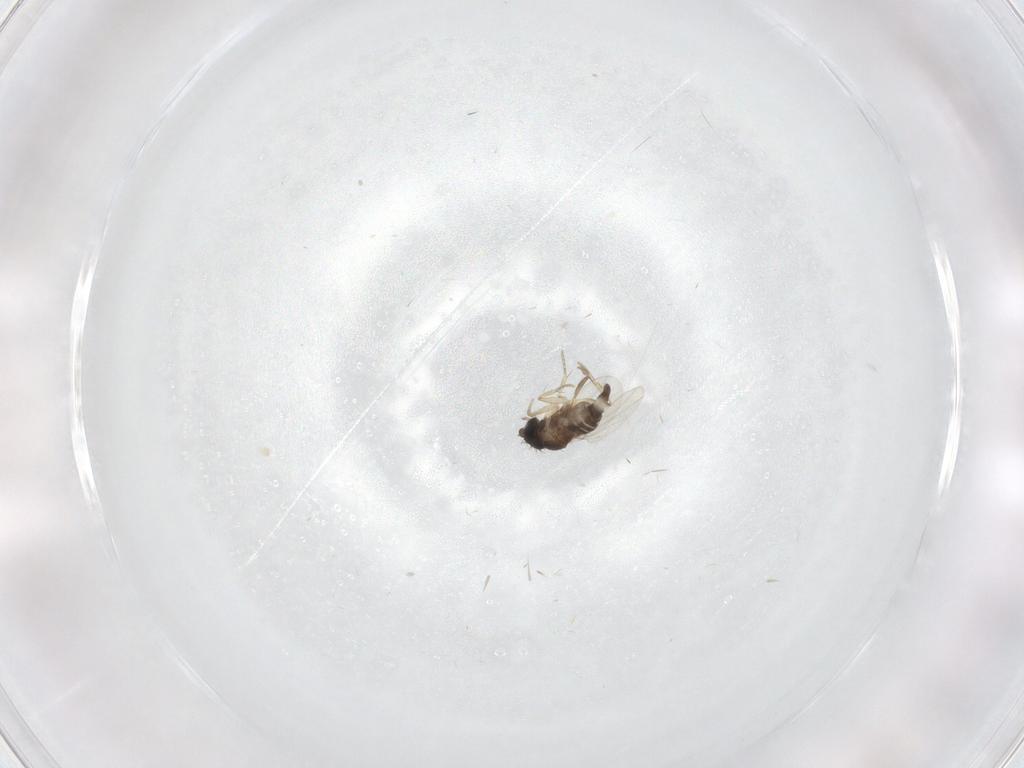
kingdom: Animalia
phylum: Arthropoda
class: Insecta
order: Diptera
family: Phoridae
